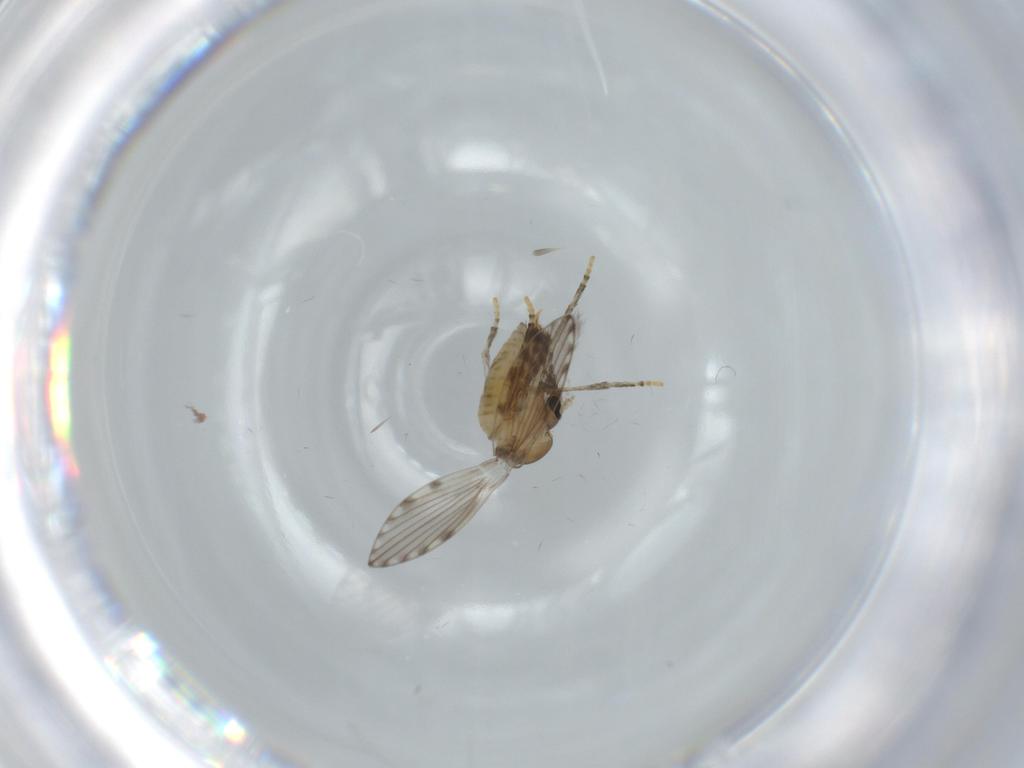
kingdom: Animalia
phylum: Arthropoda
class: Insecta
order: Diptera
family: Psychodidae
